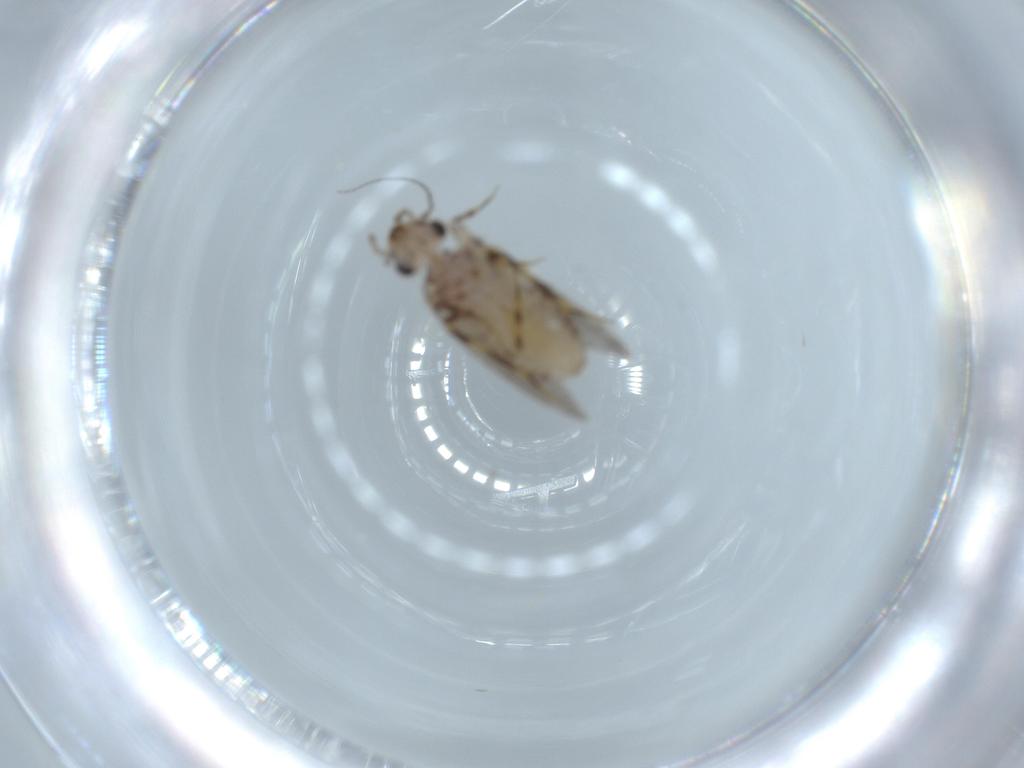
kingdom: Animalia
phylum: Arthropoda
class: Insecta
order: Psocodea
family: Lepidopsocidae
